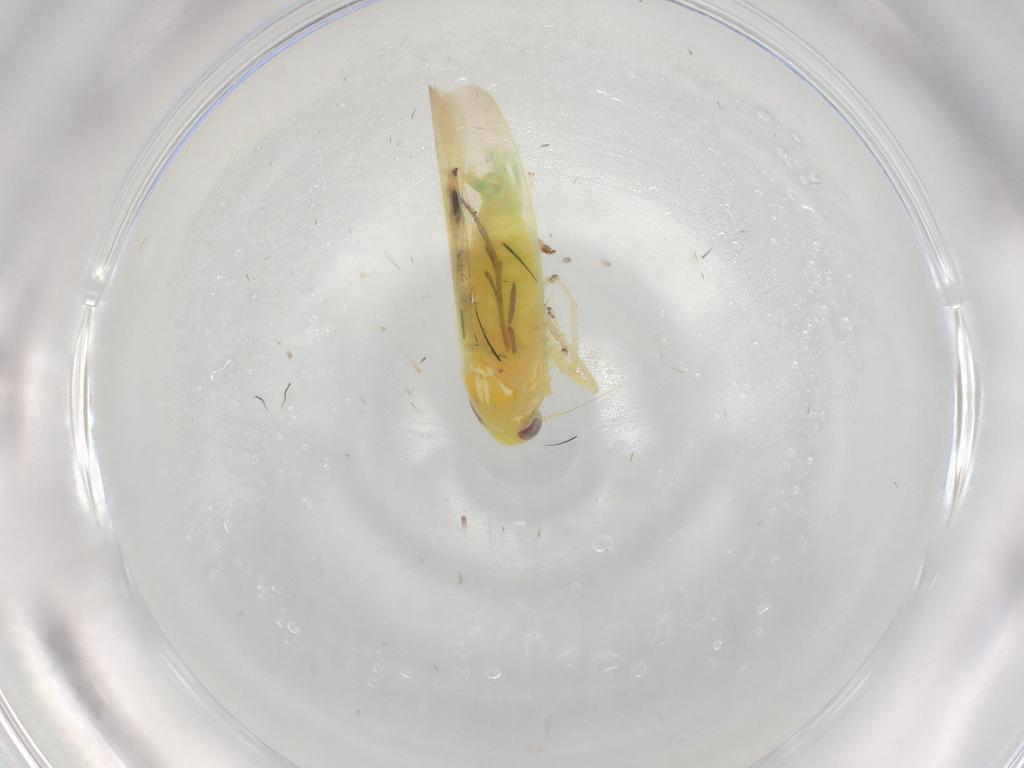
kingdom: Animalia
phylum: Arthropoda
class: Insecta
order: Hemiptera
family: Cicadellidae
